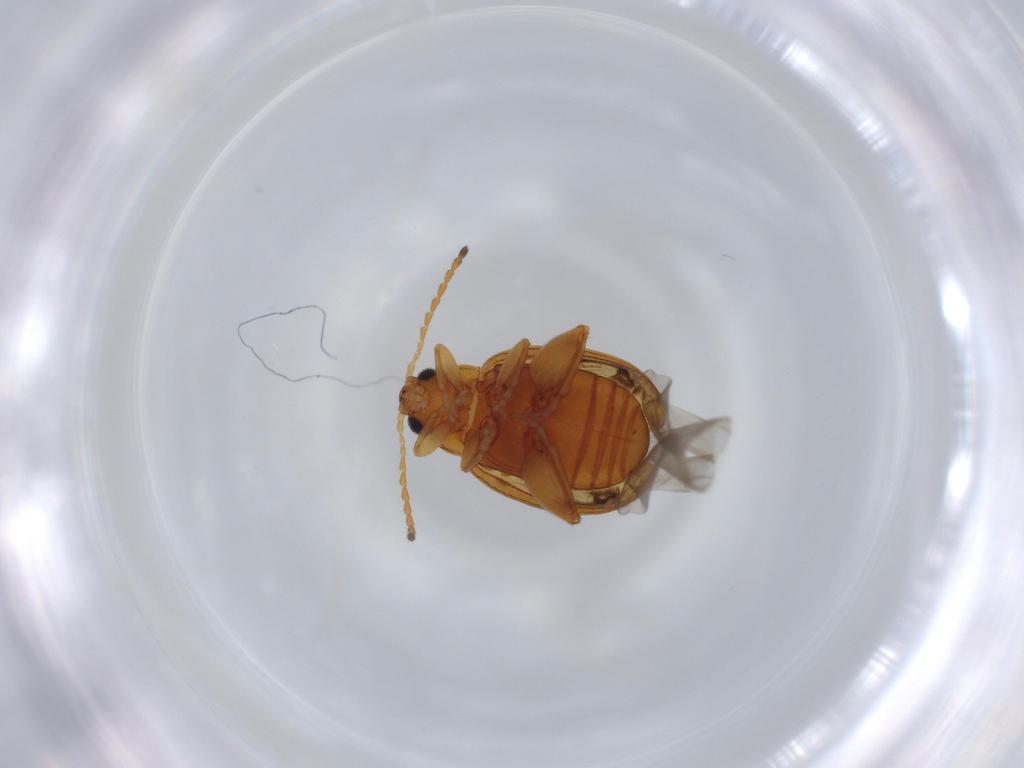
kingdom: Animalia
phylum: Arthropoda
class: Insecta
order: Coleoptera
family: Chrysomelidae
